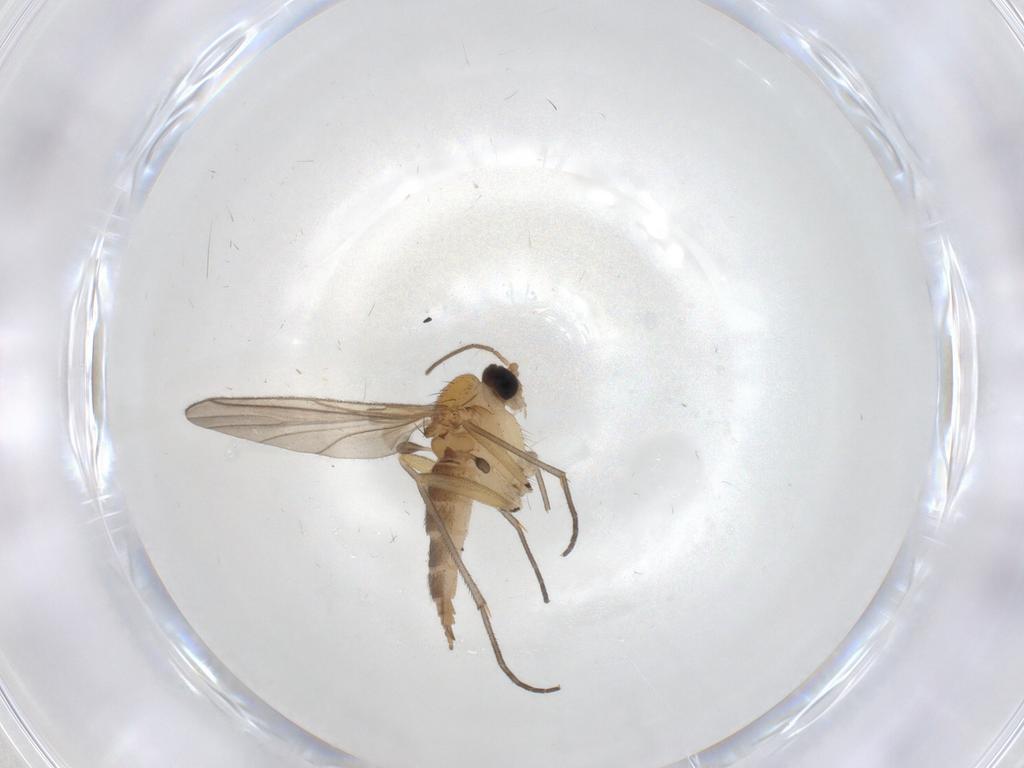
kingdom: Animalia
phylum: Arthropoda
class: Insecta
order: Diptera
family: Sciaridae
